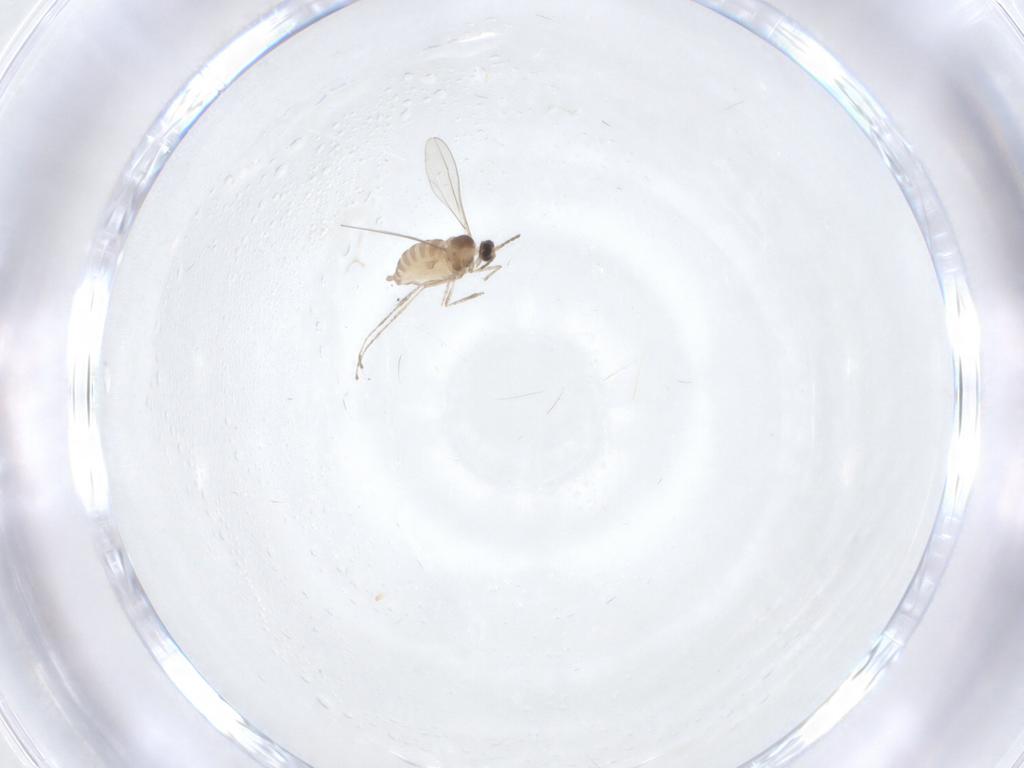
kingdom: Animalia
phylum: Arthropoda
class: Insecta
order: Diptera
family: Cecidomyiidae
